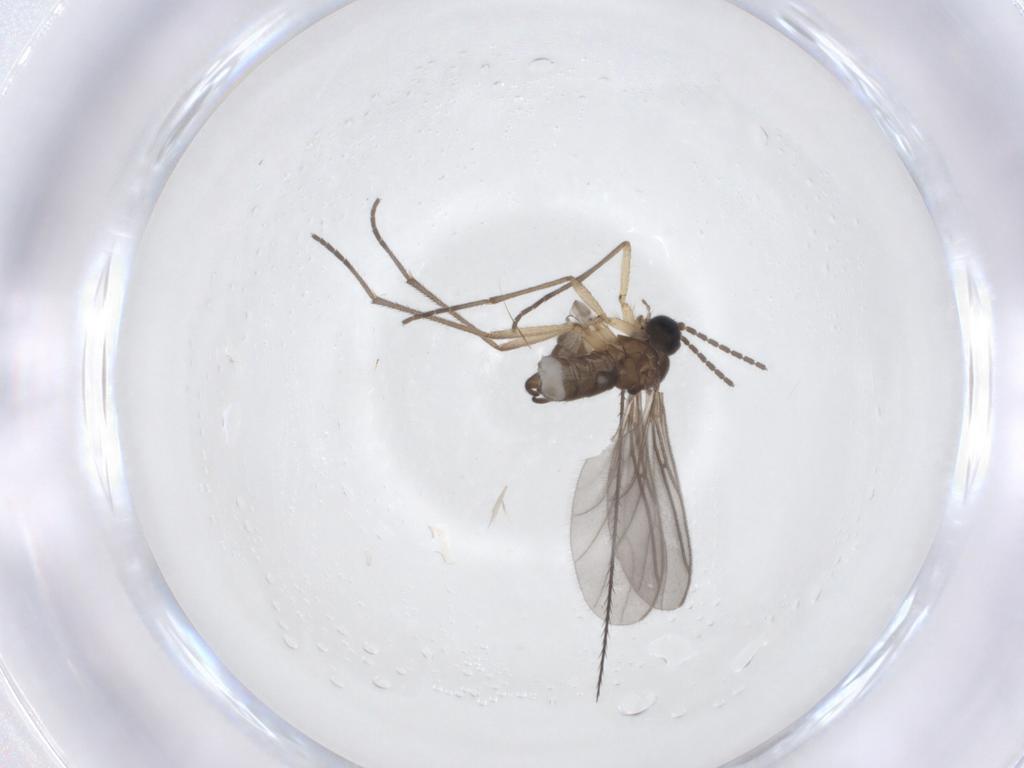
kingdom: Animalia
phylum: Arthropoda
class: Insecta
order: Diptera
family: Sciaridae
